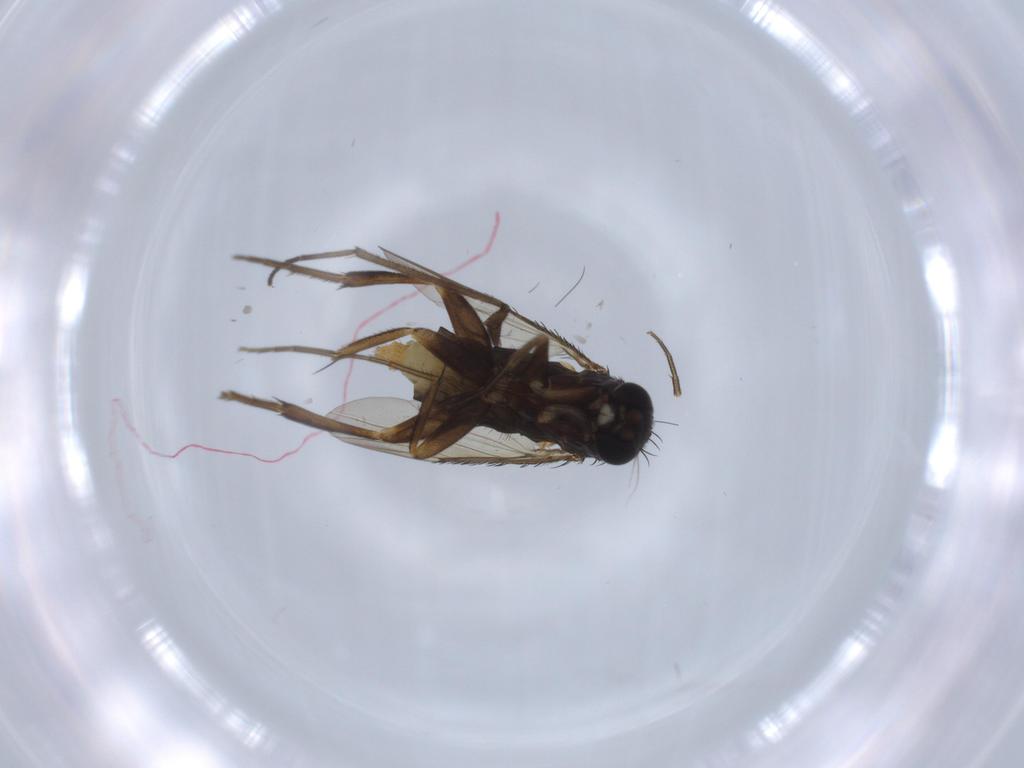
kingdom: Animalia
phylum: Arthropoda
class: Insecta
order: Diptera
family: Phoridae
